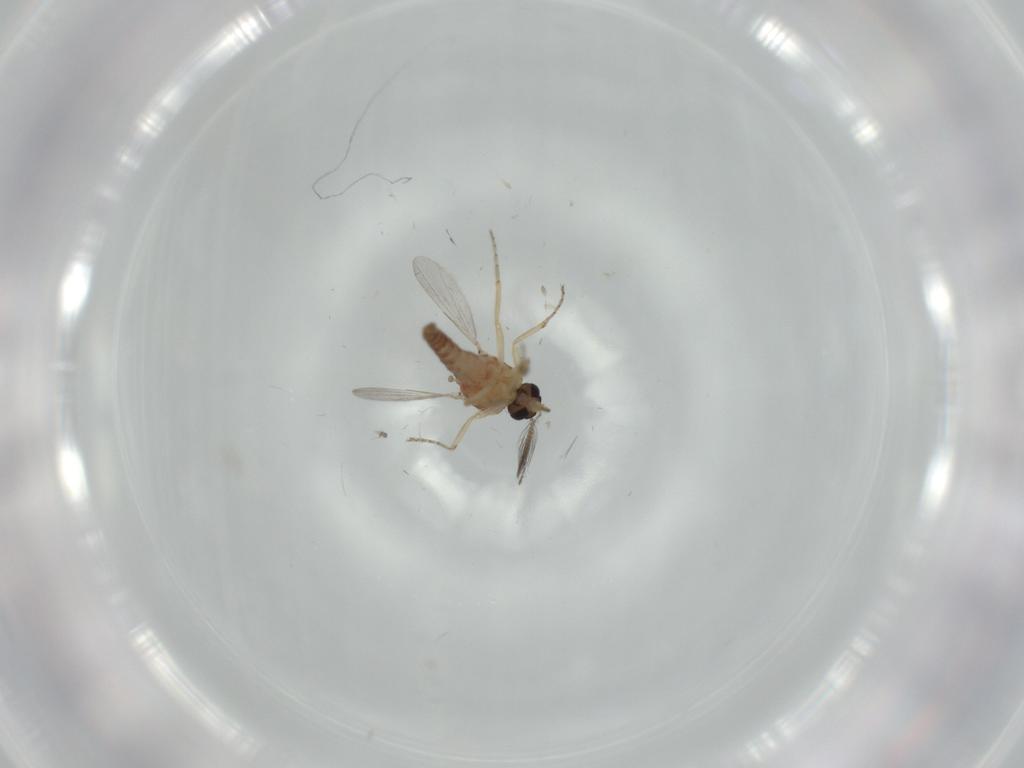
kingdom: Animalia
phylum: Arthropoda
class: Insecta
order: Diptera
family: Ceratopogonidae
